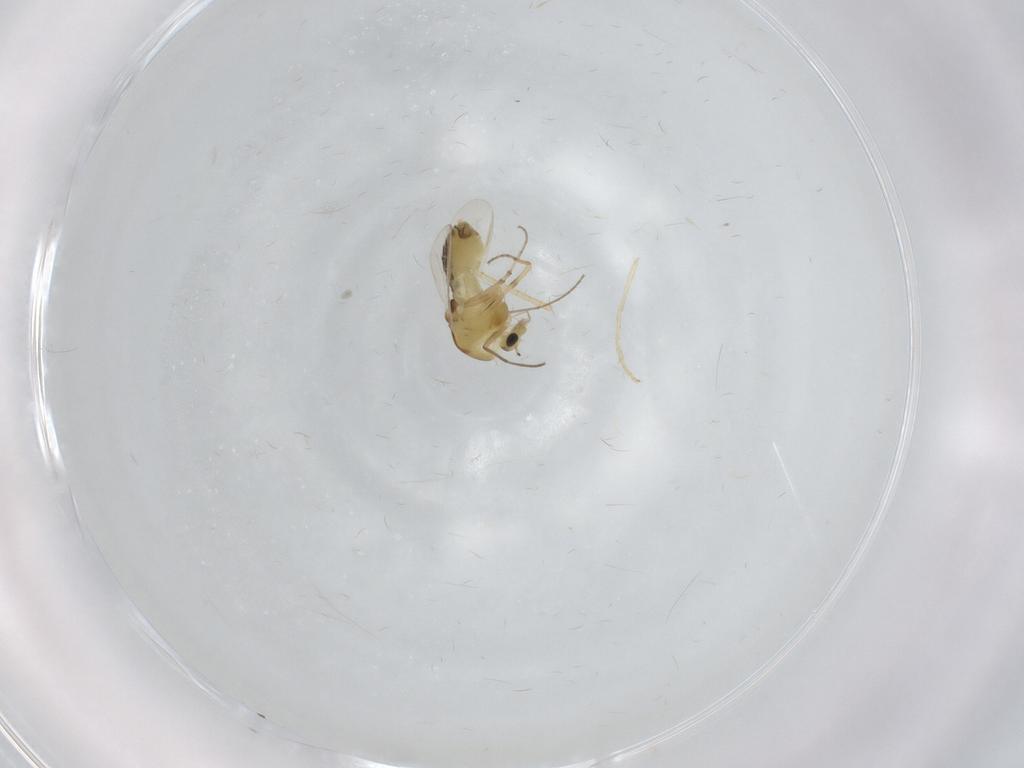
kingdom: Animalia
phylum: Arthropoda
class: Insecta
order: Diptera
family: Chironomidae
